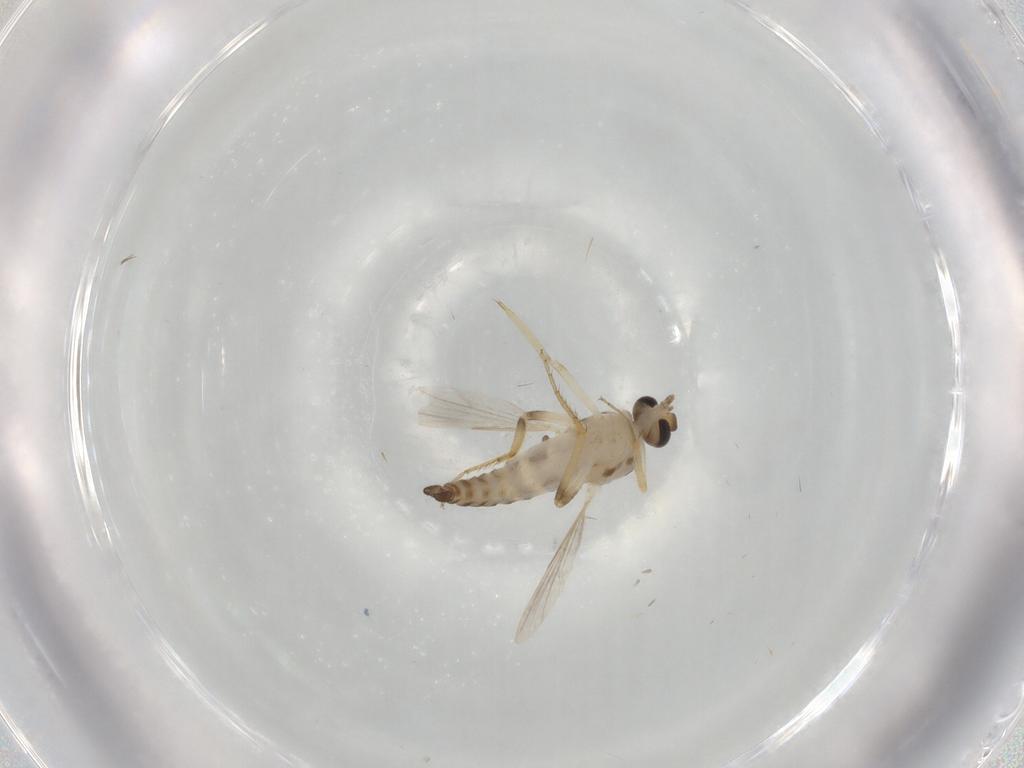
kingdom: Animalia
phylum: Arthropoda
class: Insecta
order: Diptera
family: Ceratopogonidae
